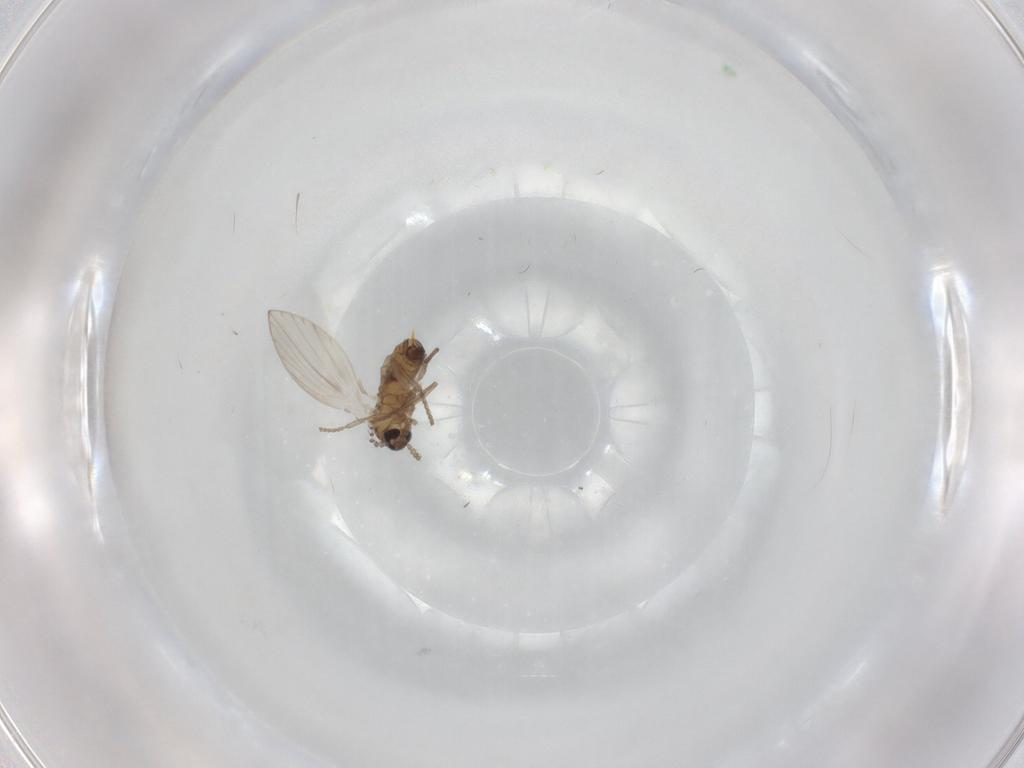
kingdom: Animalia
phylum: Arthropoda
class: Insecta
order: Diptera
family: Psychodidae
